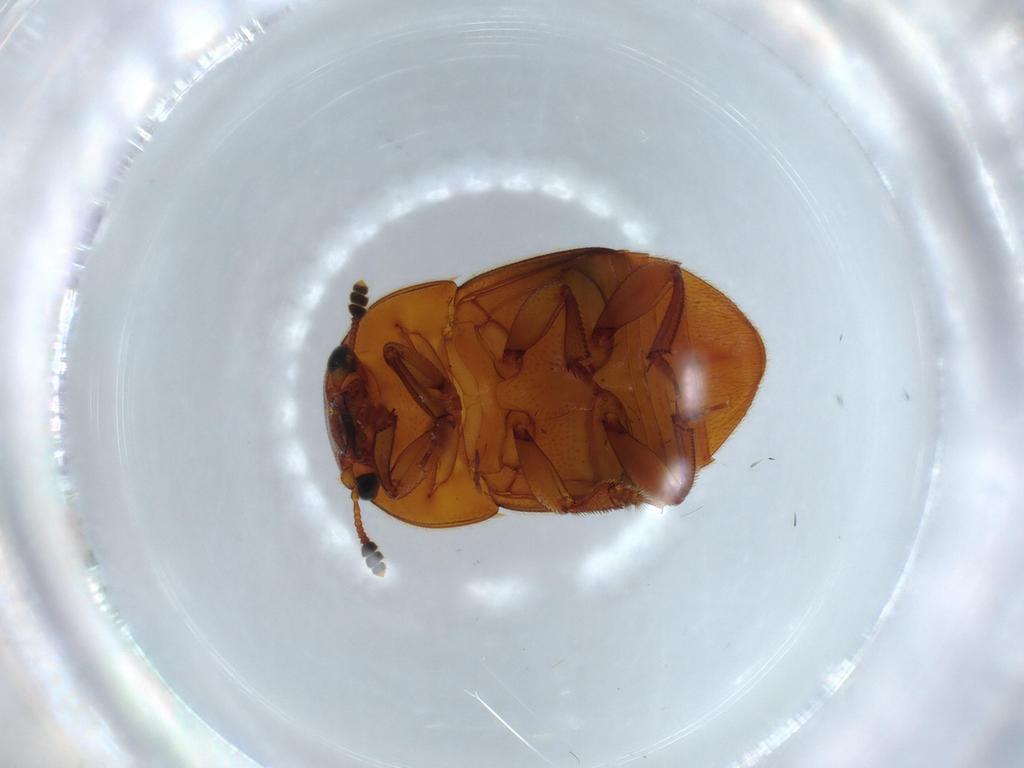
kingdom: Animalia
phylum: Arthropoda
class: Insecta
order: Coleoptera
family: Nitidulidae
